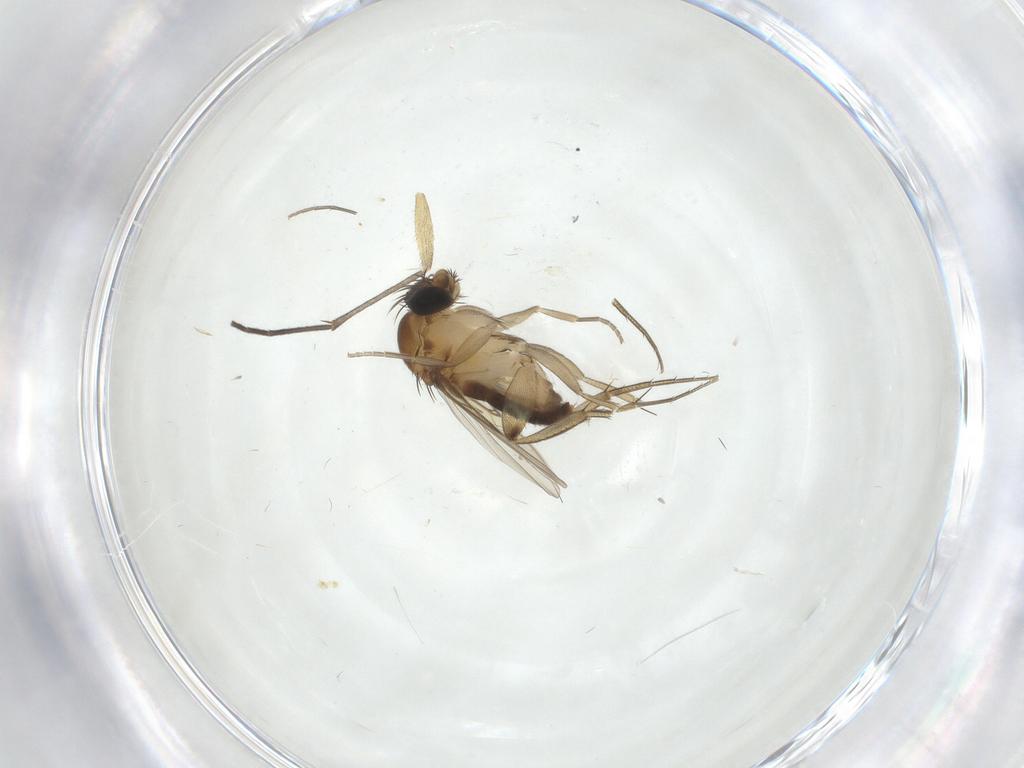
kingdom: Animalia
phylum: Arthropoda
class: Insecta
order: Diptera
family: Phoridae
